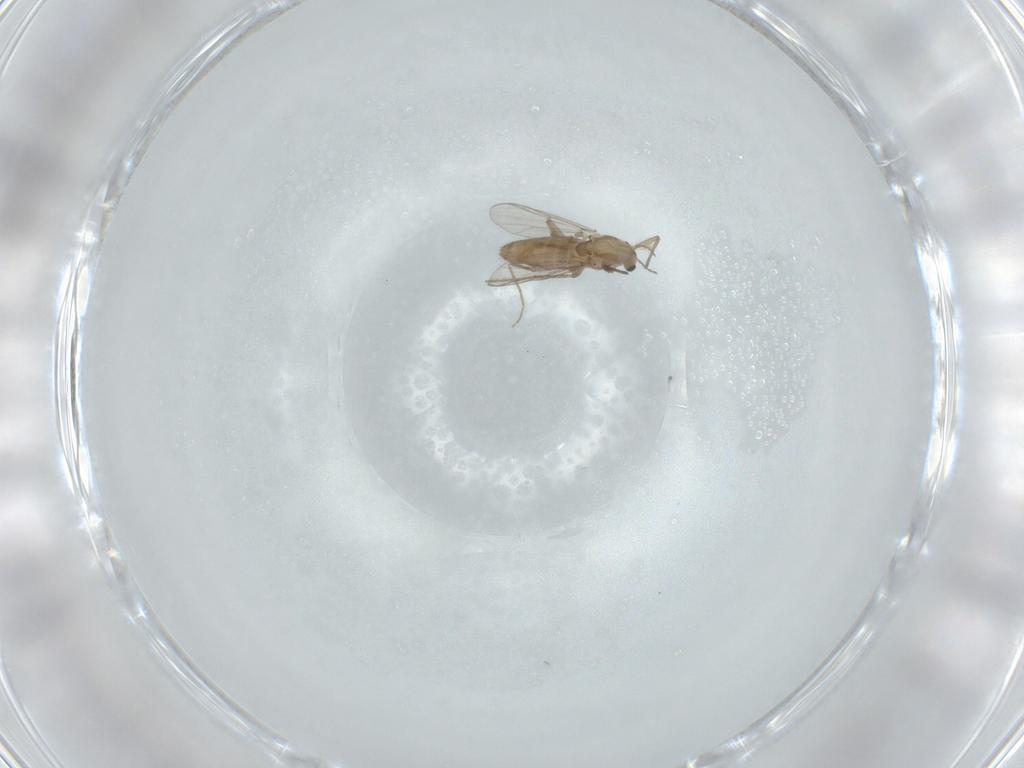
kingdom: Animalia
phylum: Arthropoda
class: Insecta
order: Diptera
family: Chironomidae
